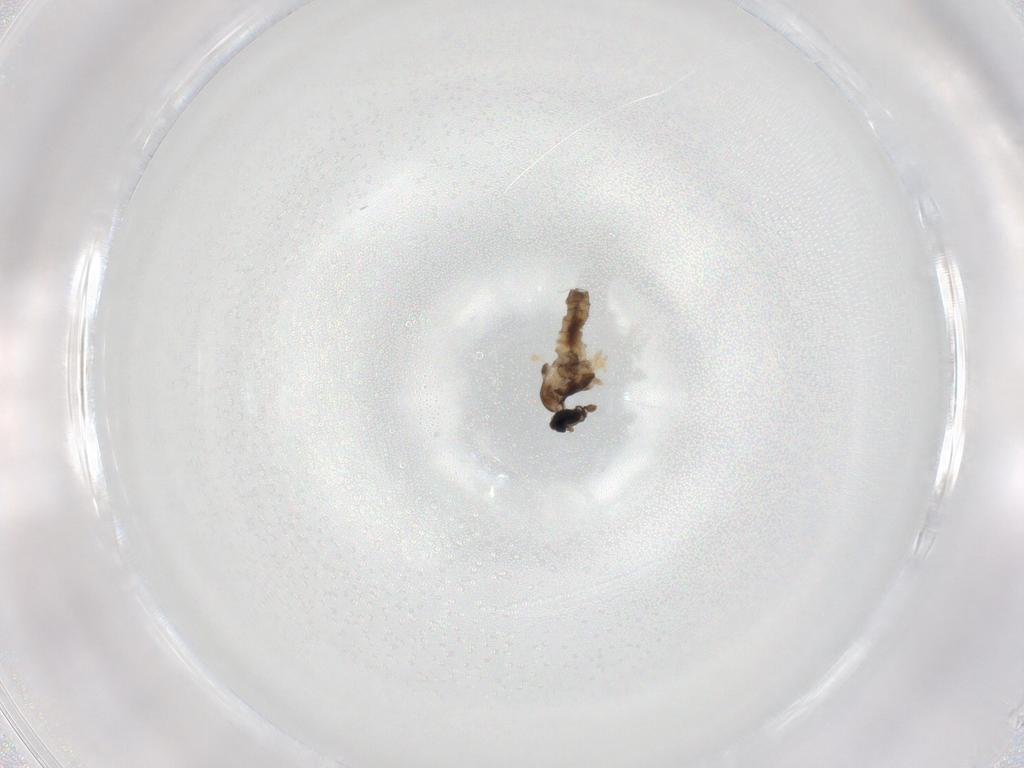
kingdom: Animalia
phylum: Arthropoda
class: Insecta
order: Diptera
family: Cecidomyiidae
